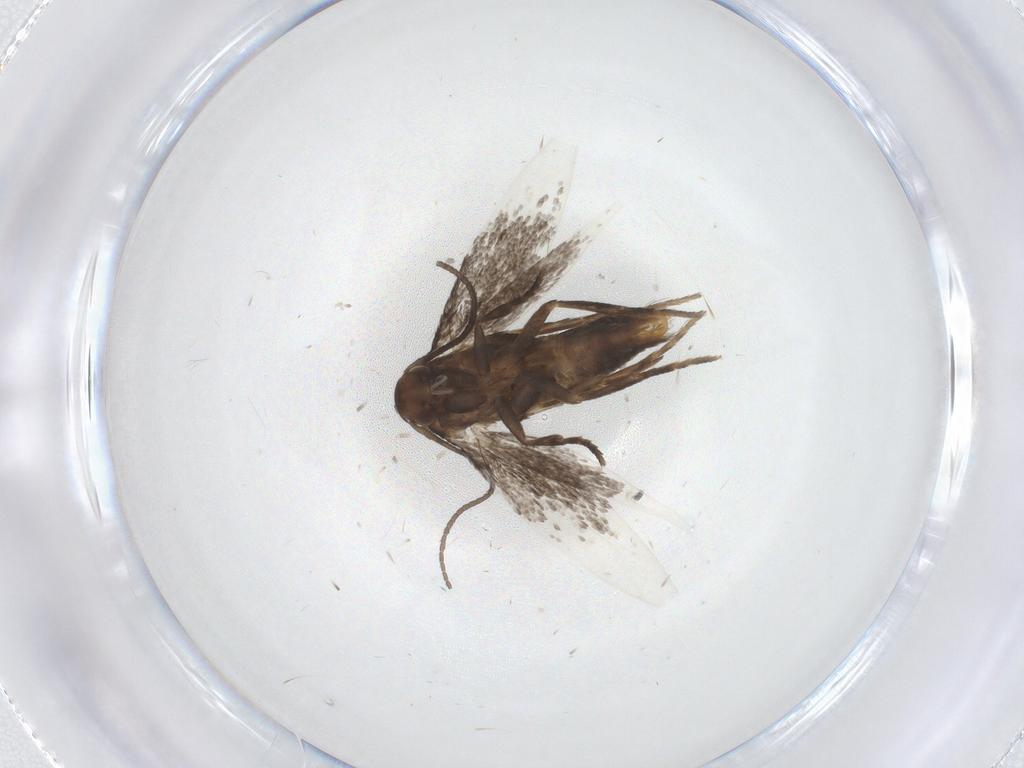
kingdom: Animalia
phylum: Arthropoda
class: Insecta
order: Lepidoptera
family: Elachistidae
